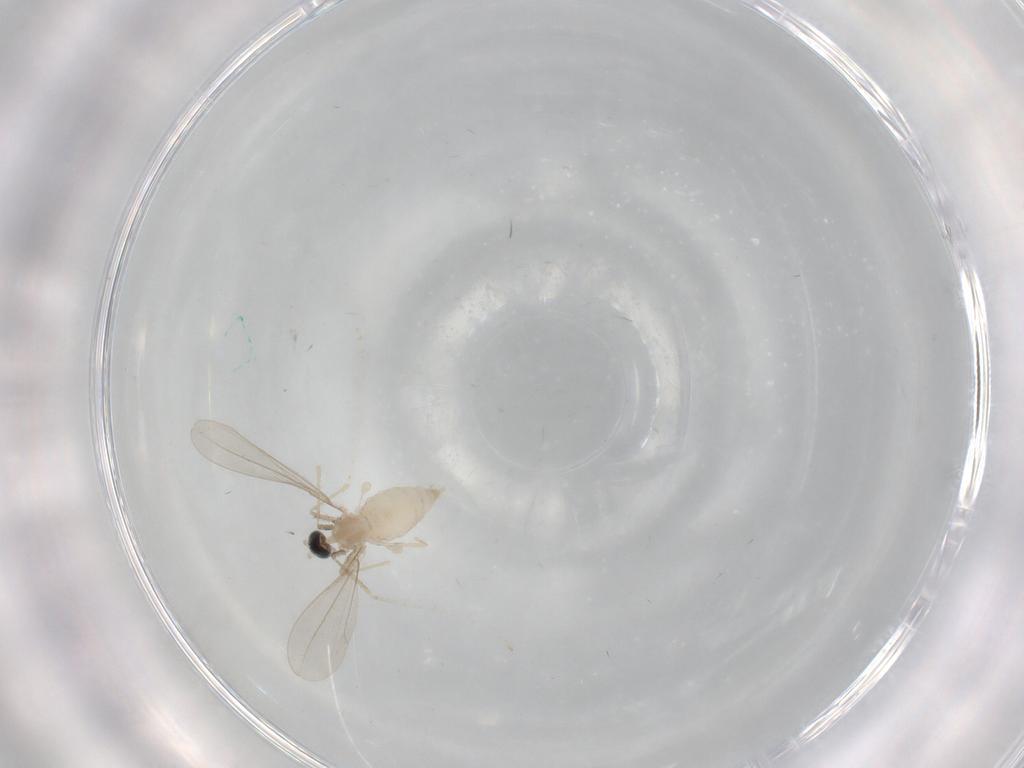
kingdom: Animalia
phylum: Arthropoda
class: Insecta
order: Diptera
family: Cecidomyiidae
